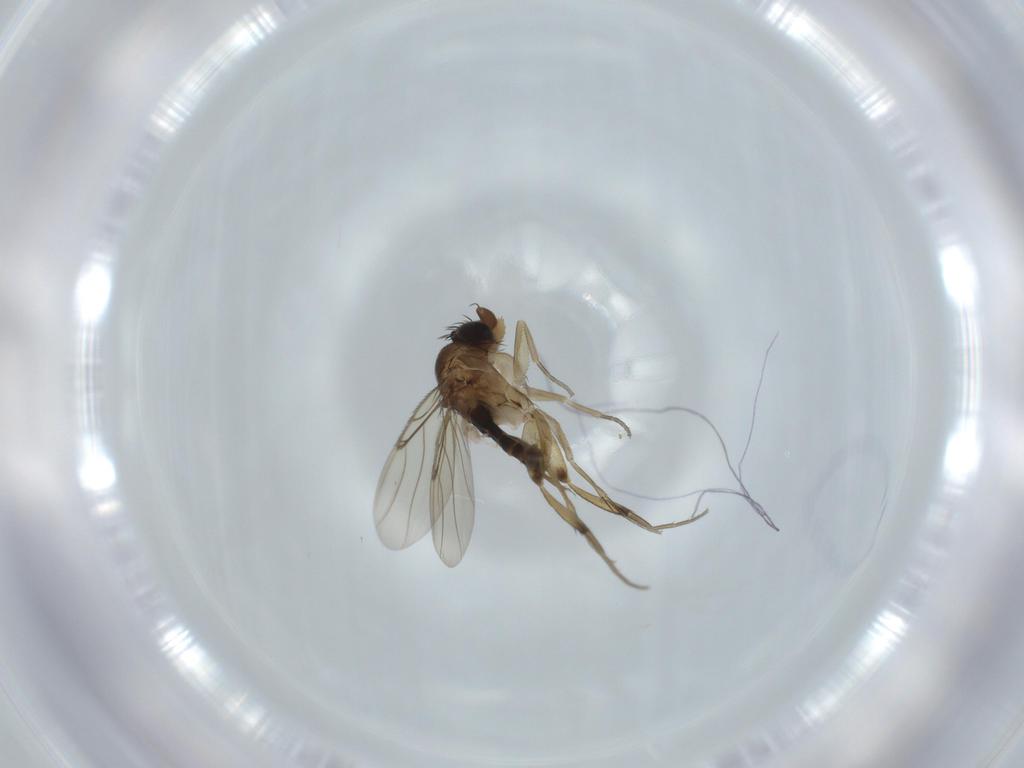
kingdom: Animalia
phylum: Arthropoda
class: Insecta
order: Diptera
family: Phoridae
